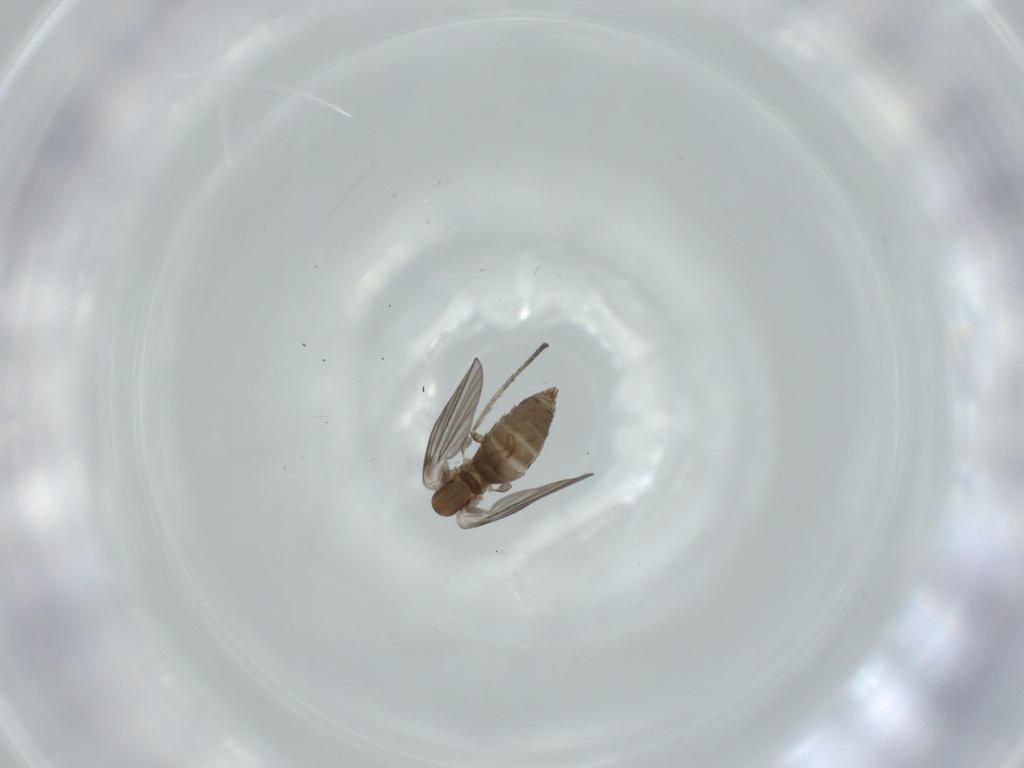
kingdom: Animalia
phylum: Arthropoda
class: Insecta
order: Diptera
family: Psychodidae
